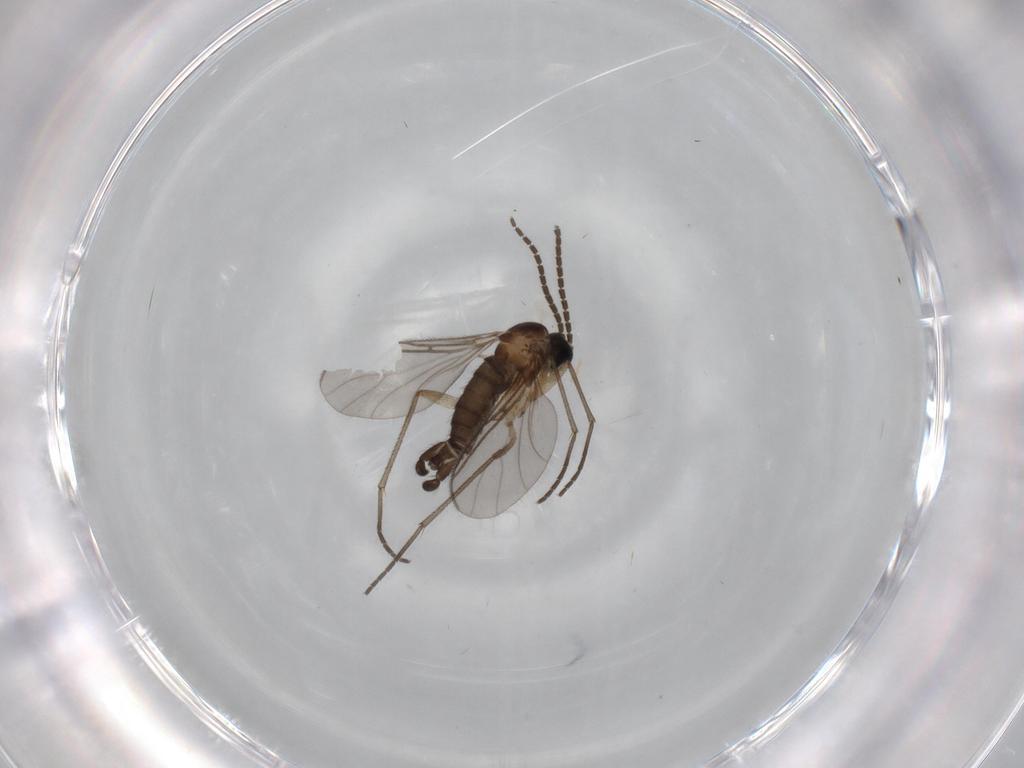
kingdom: Animalia
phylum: Arthropoda
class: Insecta
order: Diptera
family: Sciaridae
